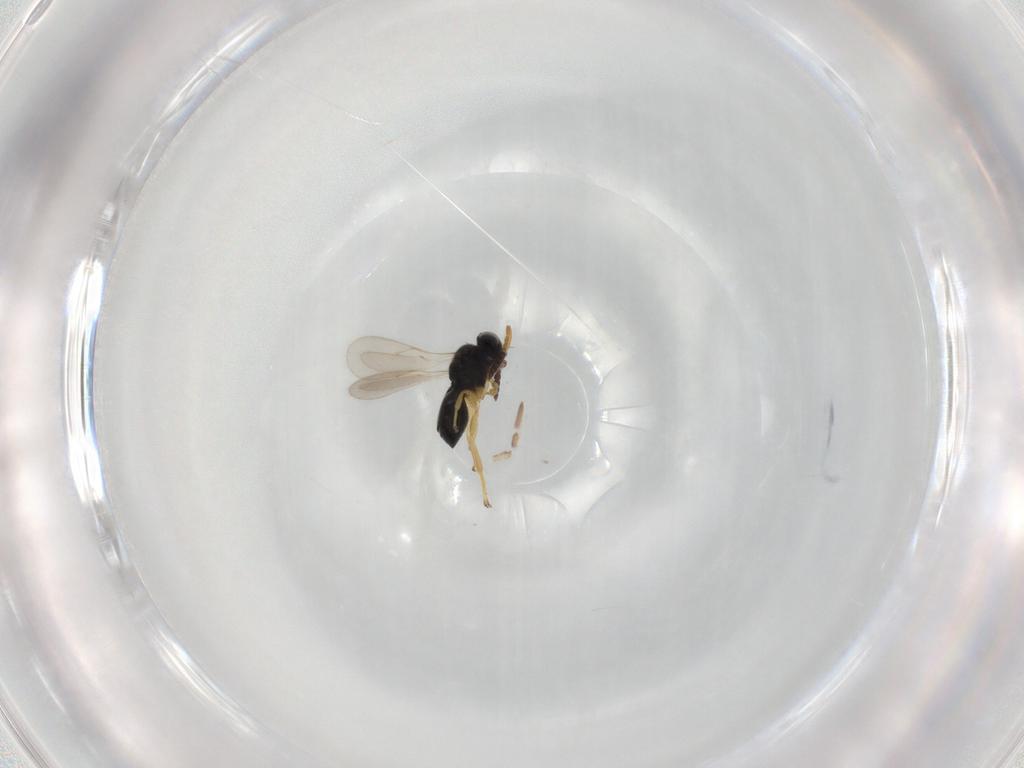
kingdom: Animalia
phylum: Arthropoda
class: Insecta
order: Hymenoptera
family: Scelionidae
